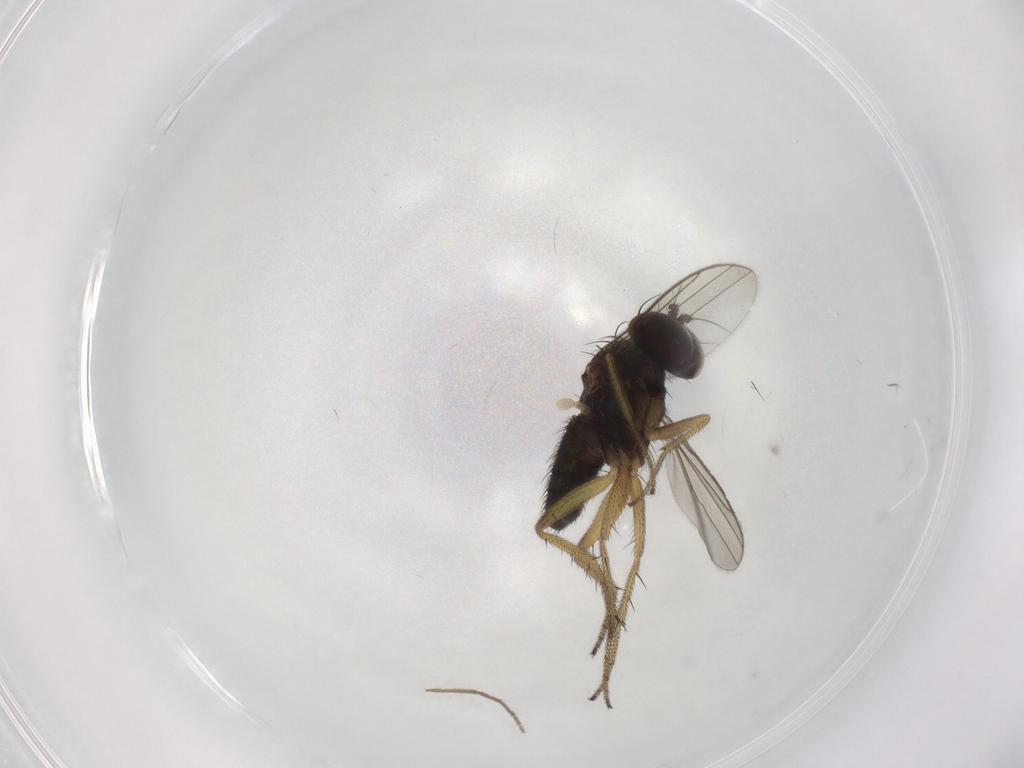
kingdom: Animalia
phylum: Arthropoda
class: Insecta
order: Diptera
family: Dolichopodidae
